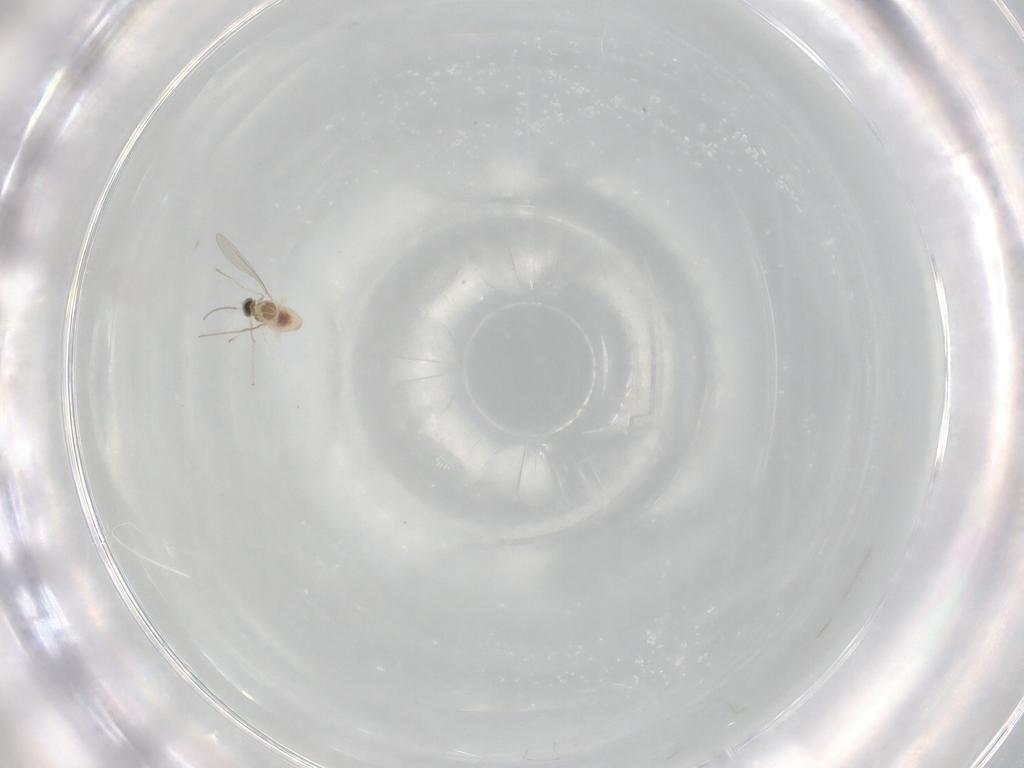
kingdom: Animalia
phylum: Arthropoda
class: Insecta
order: Diptera
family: Cecidomyiidae
